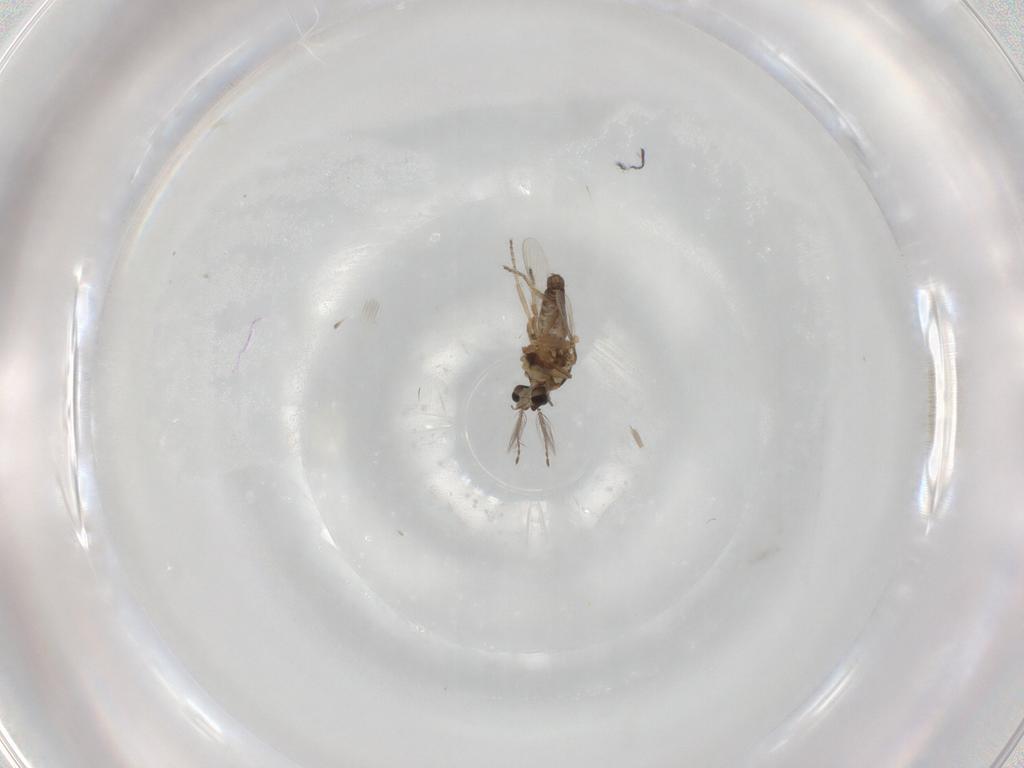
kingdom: Animalia
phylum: Arthropoda
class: Insecta
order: Diptera
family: Ceratopogonidae
